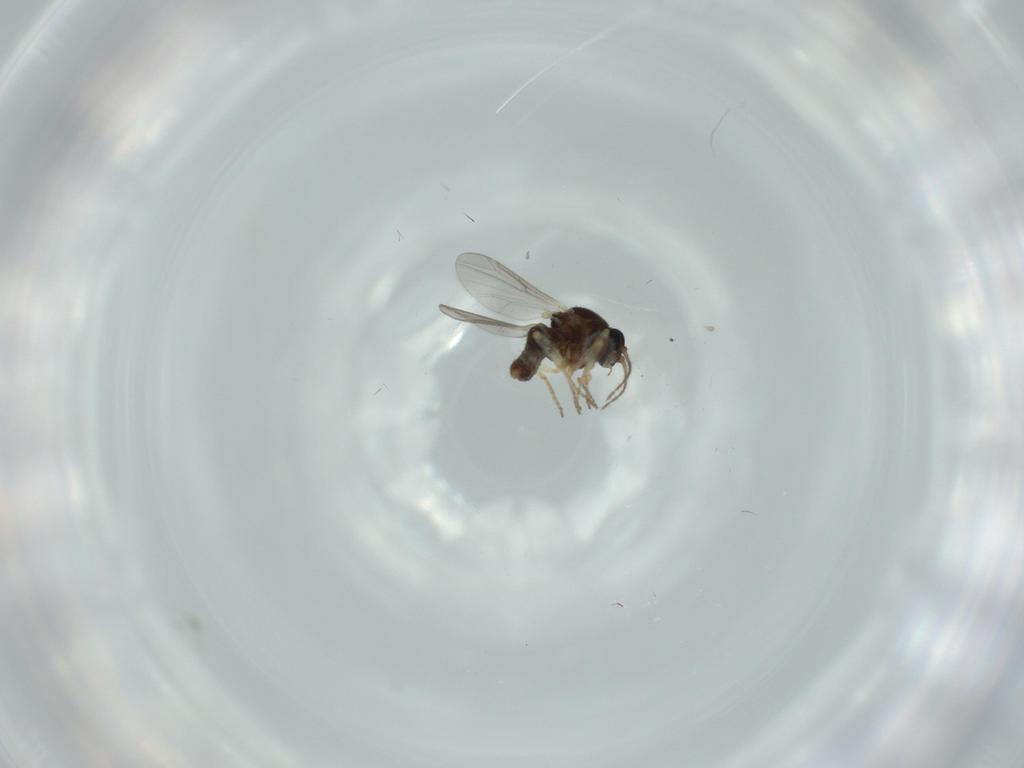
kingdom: Animalia
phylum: Arthropoda
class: Insecta
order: Diptera
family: Ceratopogonidae
